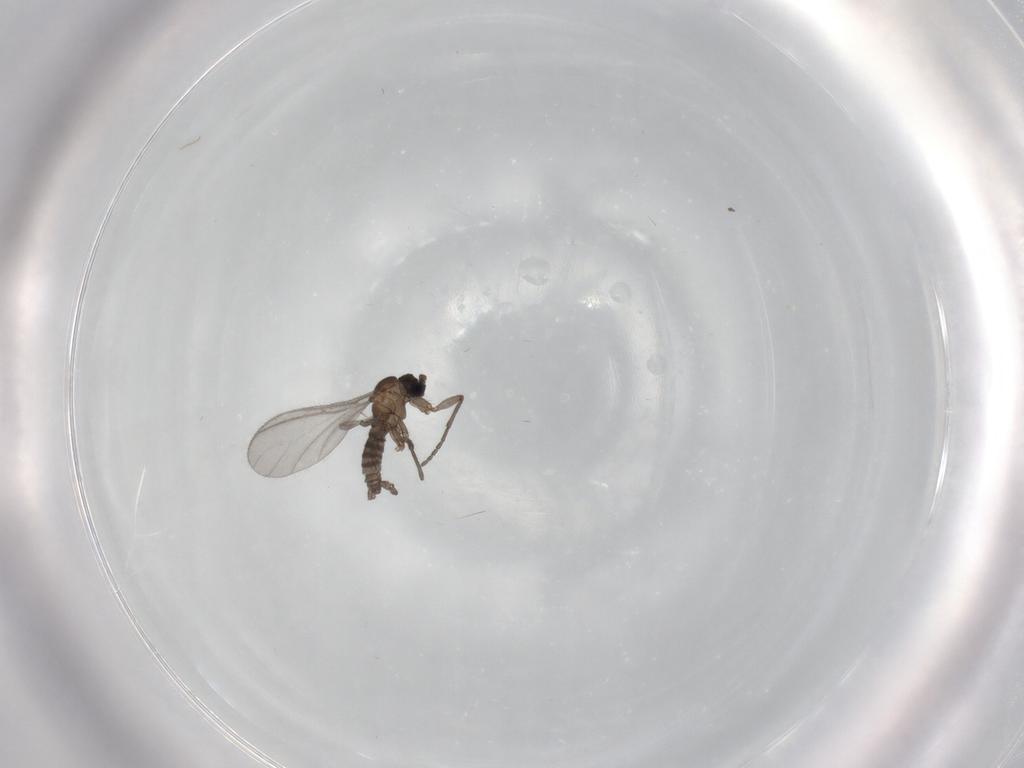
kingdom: Animalia
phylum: Arthropoda
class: Insecta
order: Diptera
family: Sciaridae
